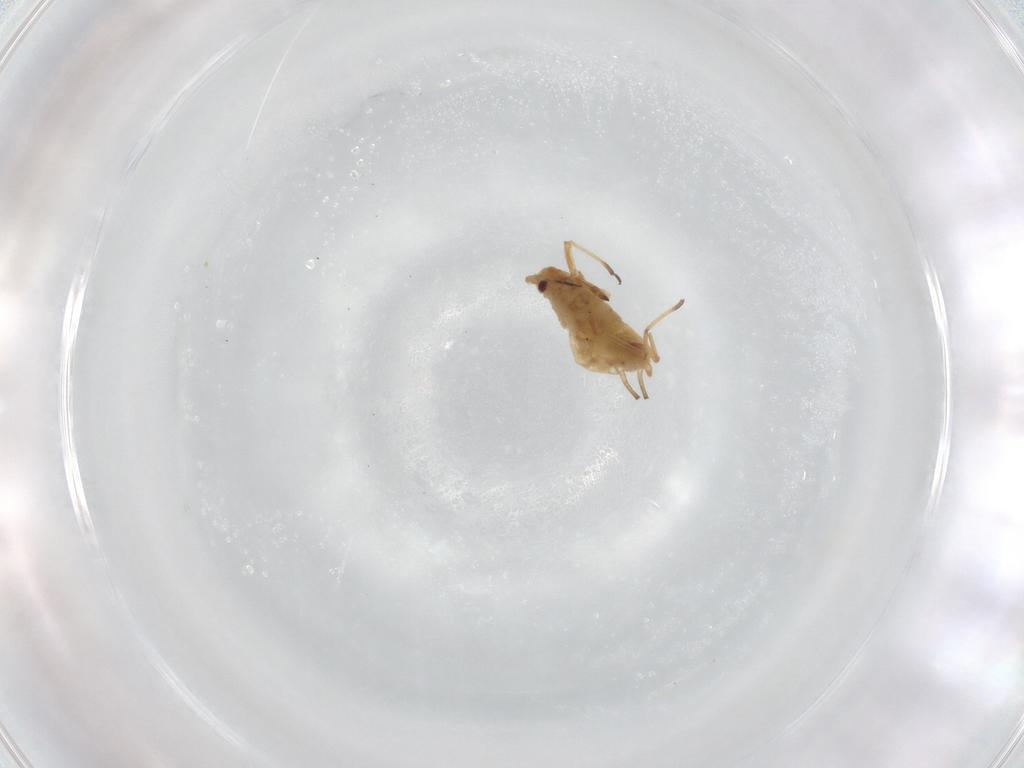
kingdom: Animalia
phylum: Arthropoda
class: Insecta
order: Hemiptera
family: Aphididae
